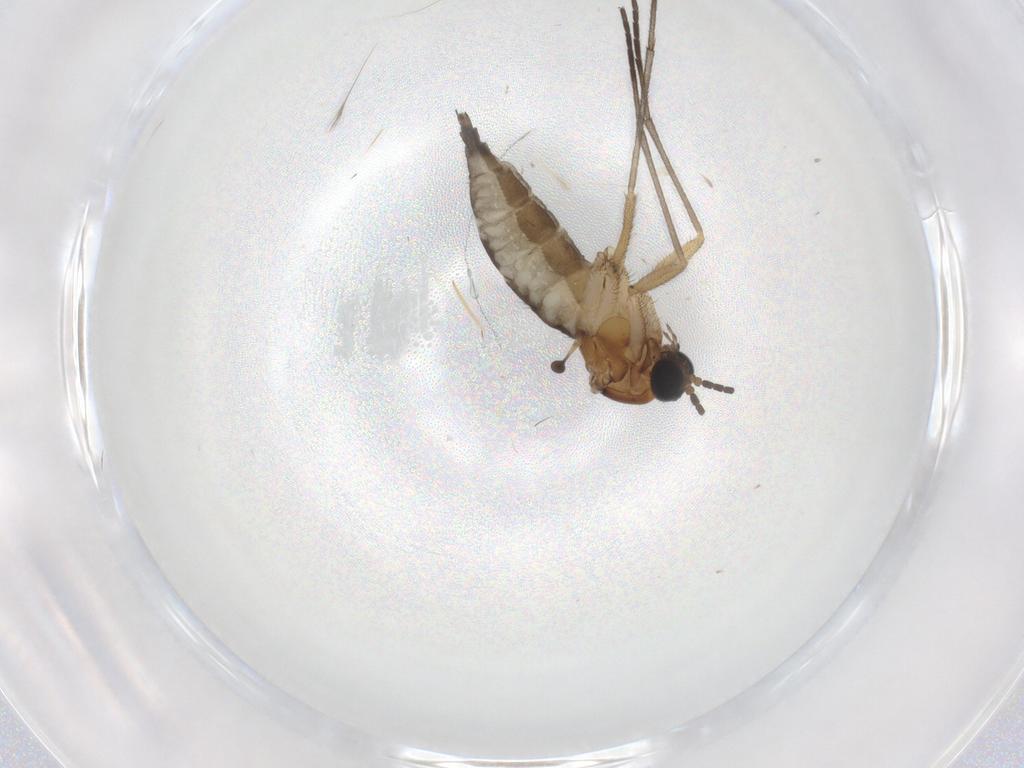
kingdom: Animalia
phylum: Arthropoda
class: Insecta
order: Diptera
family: Sciaridae
